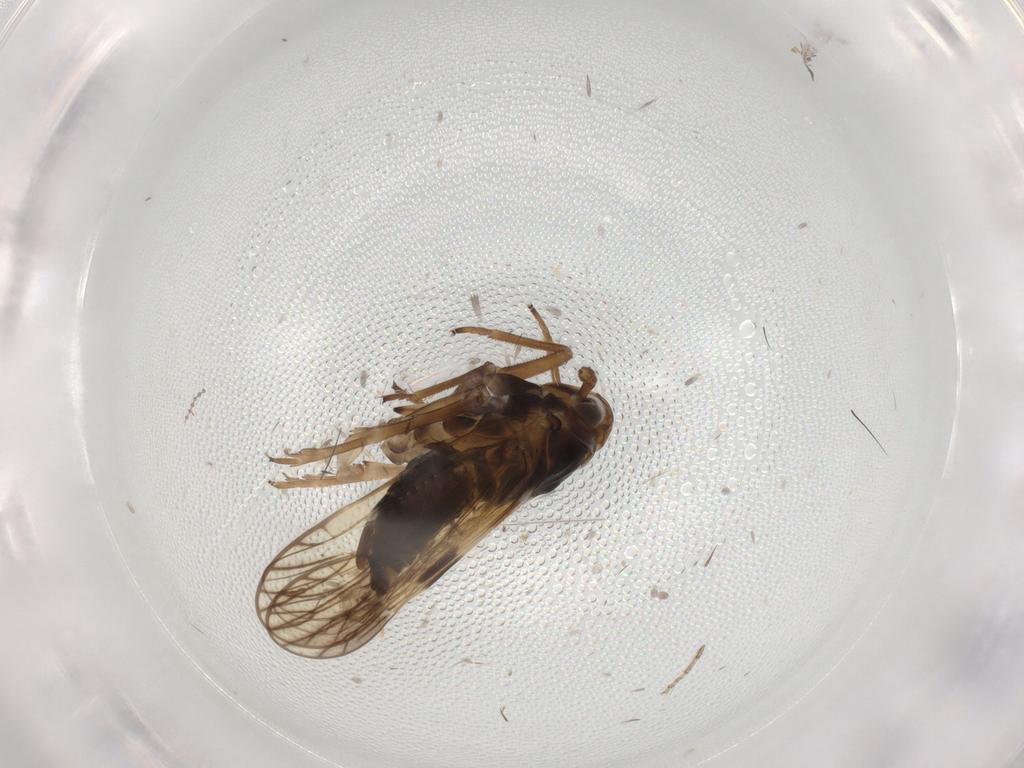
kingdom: Animalia
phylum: Arthropoda
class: Insecta
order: Hemiptera
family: Delphacidae
